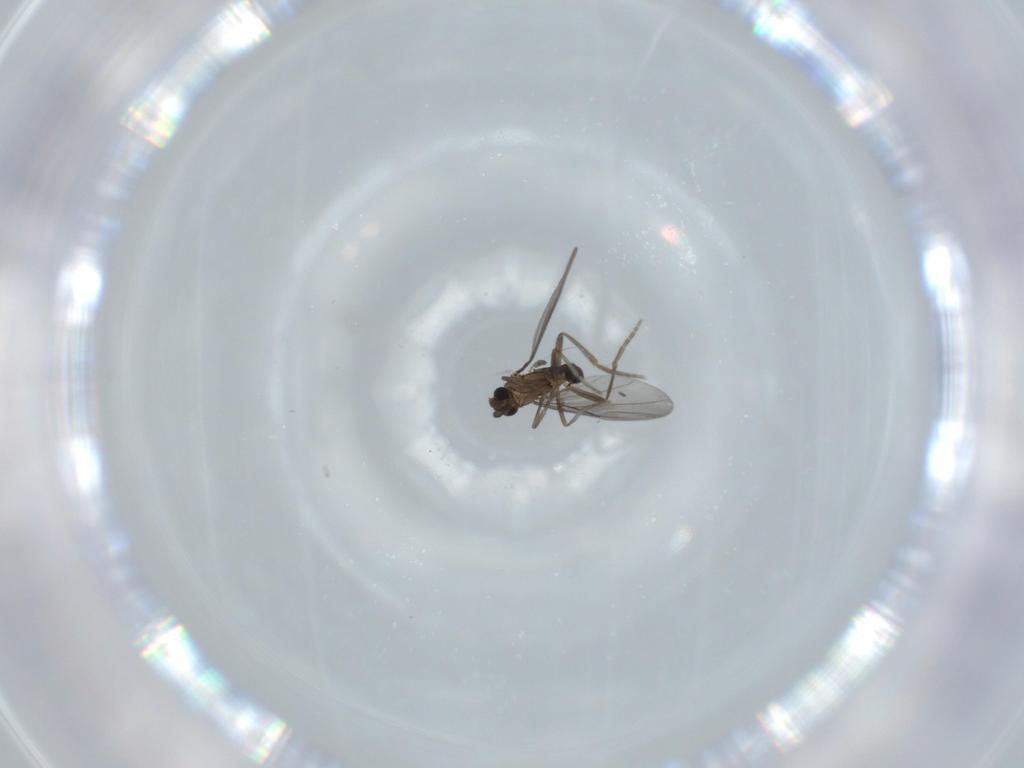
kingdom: Animalia
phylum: Arthropoda
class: Insecta
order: Diptera
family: Phoridae
